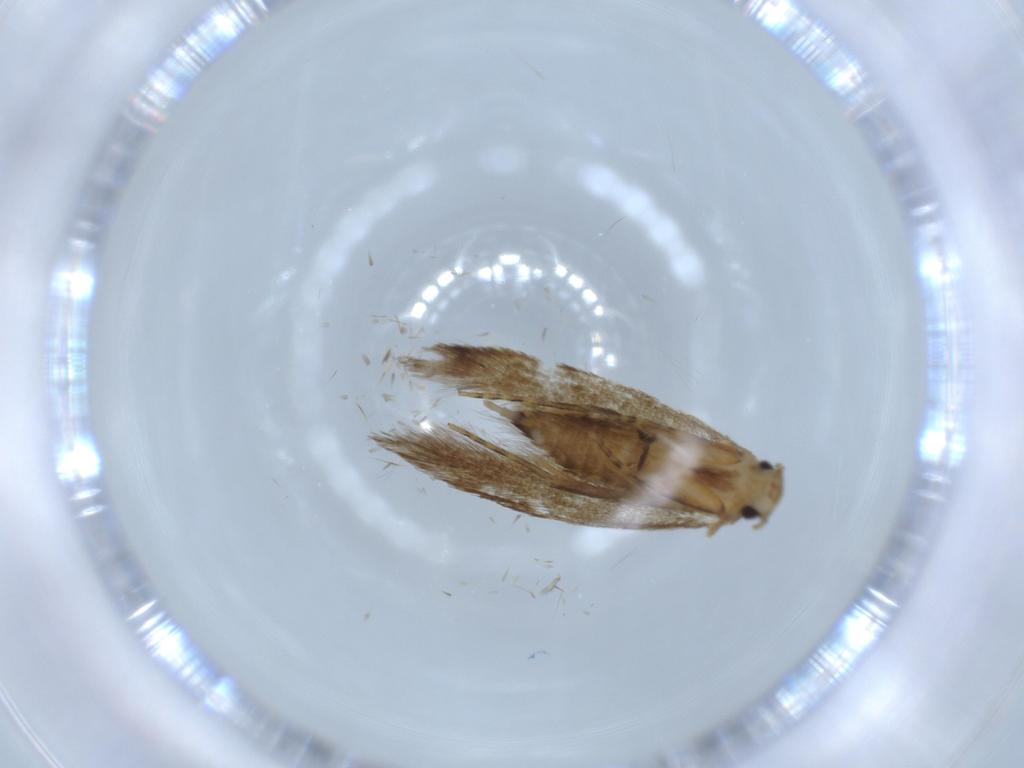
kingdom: Animalia
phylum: Arthropoda
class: Insecta
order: Lepidoptera
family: Tineidae
